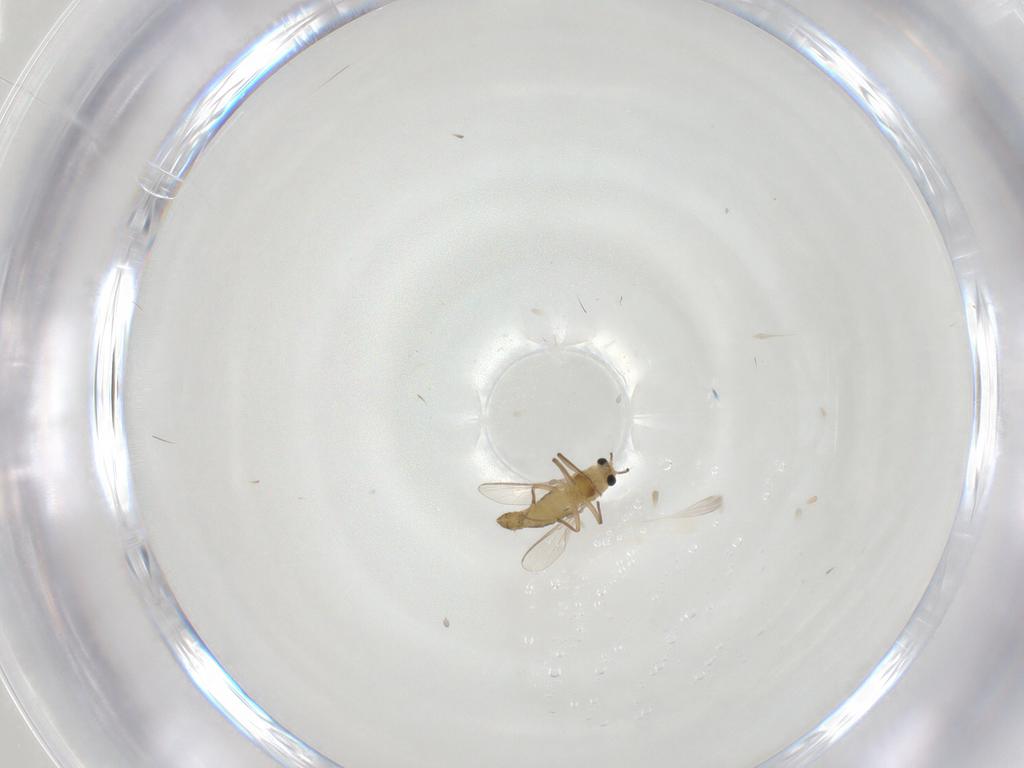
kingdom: Animalia
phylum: Arthropoda
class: Insecta
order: Diptera
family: Chironomidae
